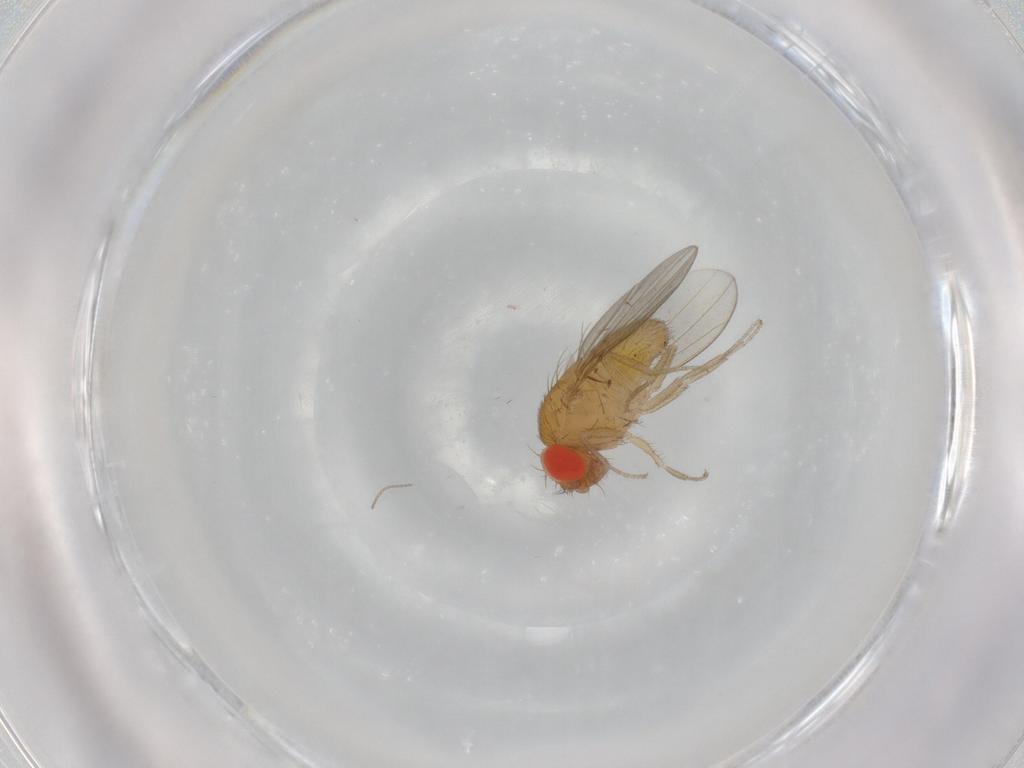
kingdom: Animalia
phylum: Arthropoda
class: Insecta
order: Diptera
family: Drosophilidae
